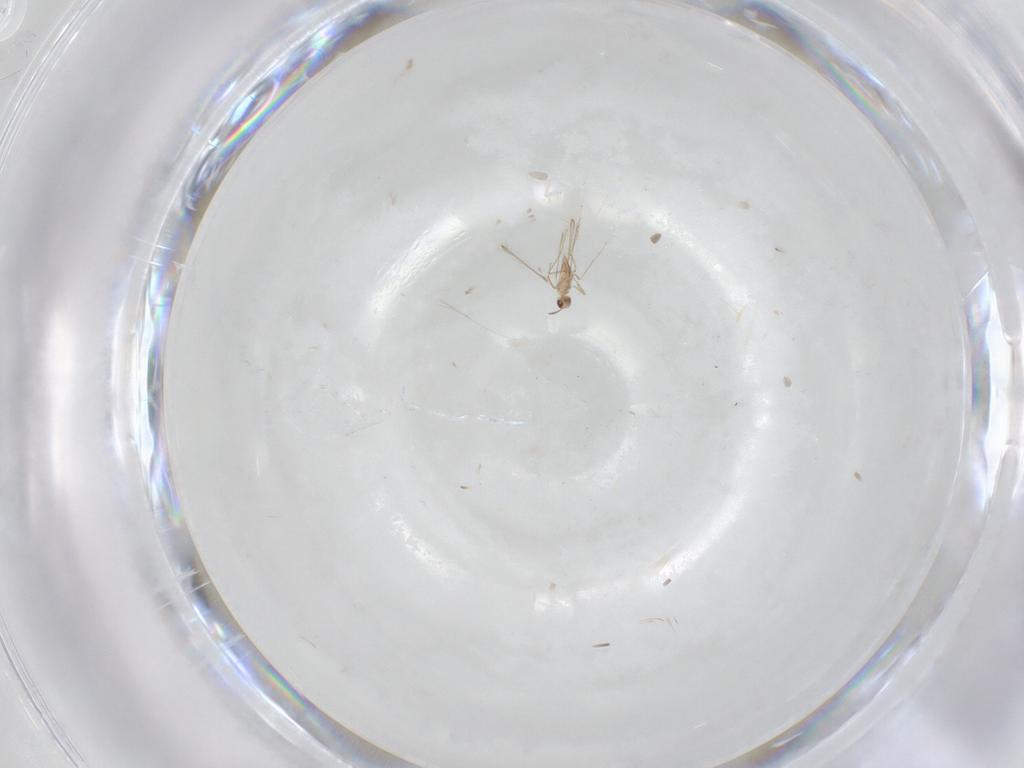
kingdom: Animalia
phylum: Arthropoda
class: Insecta
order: Hymenoptera
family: Mymaridae
